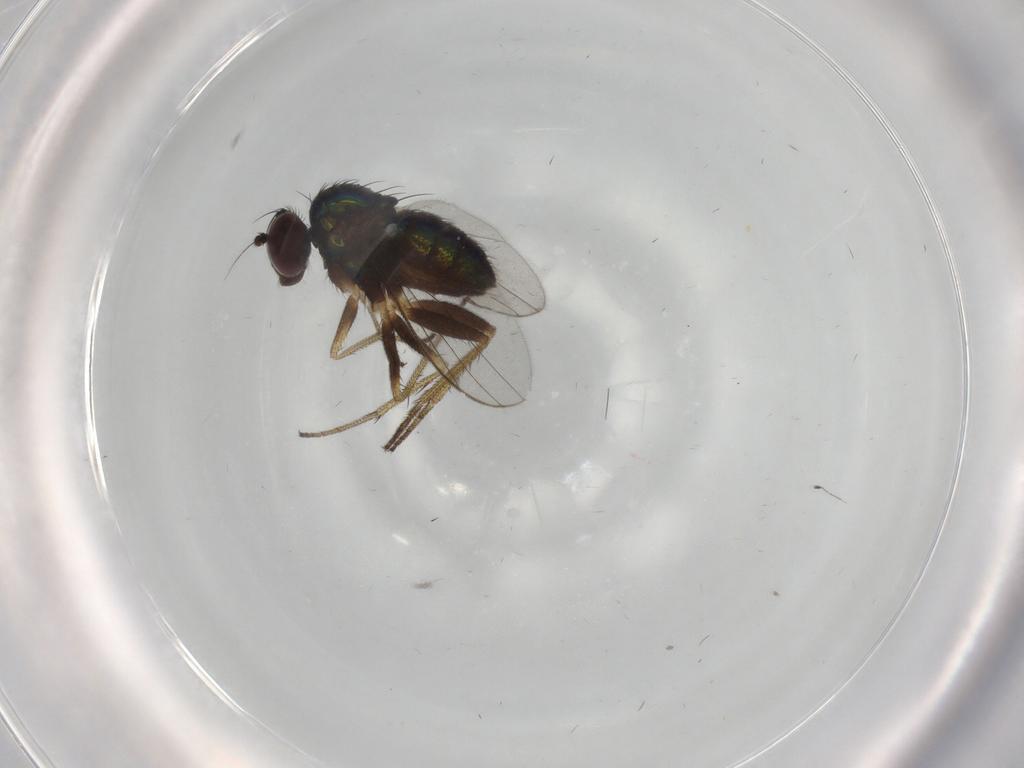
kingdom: Animalia
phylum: Arthropoda
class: Insecta
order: Diptera
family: Dolichopodidae
